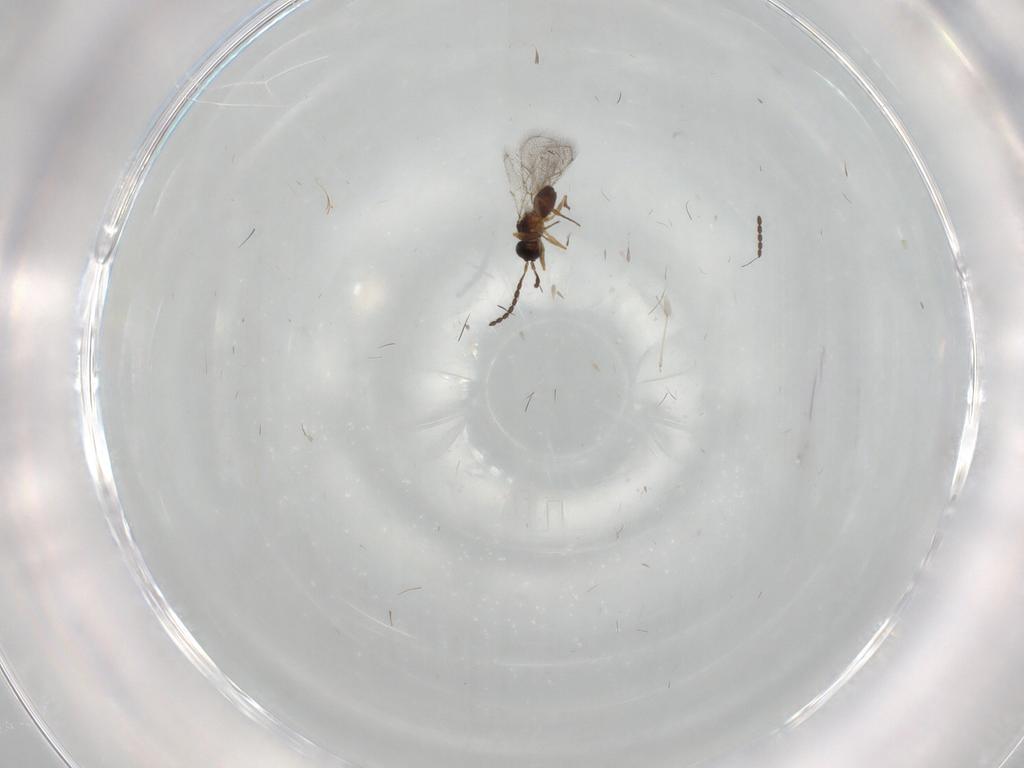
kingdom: Animalia
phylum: Arthropoda
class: Insecta
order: Hymenoptera
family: Figitidae
